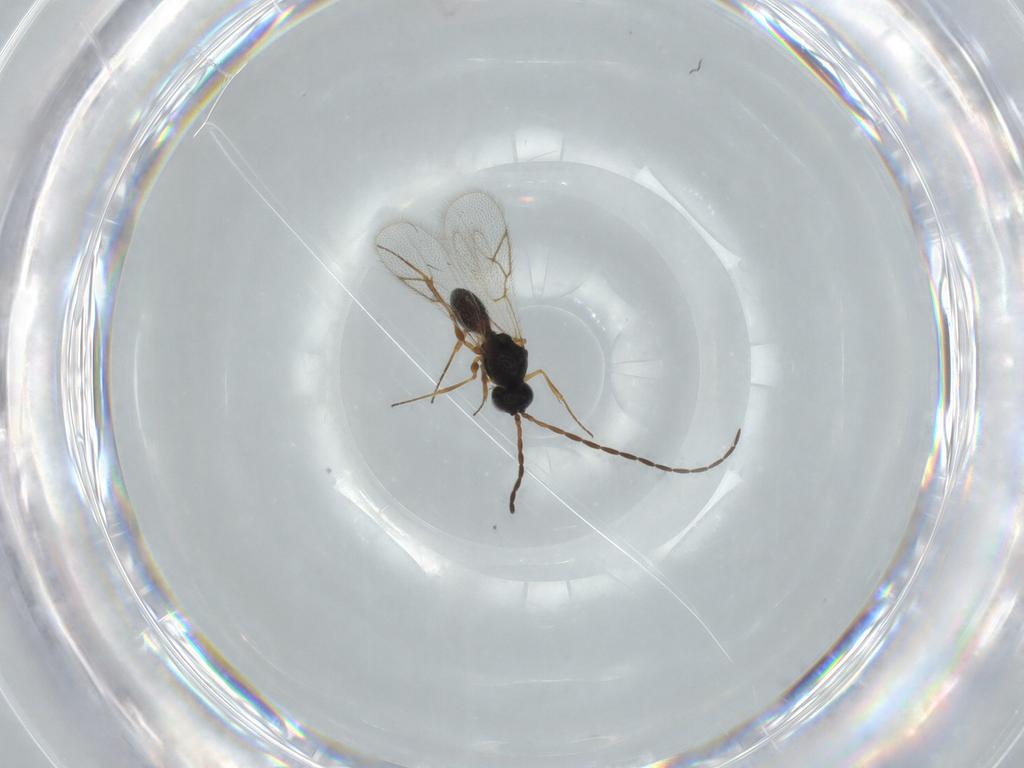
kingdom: Animalia
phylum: Arthropoda
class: Insecta
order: Hymenoptera
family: Figitidae
